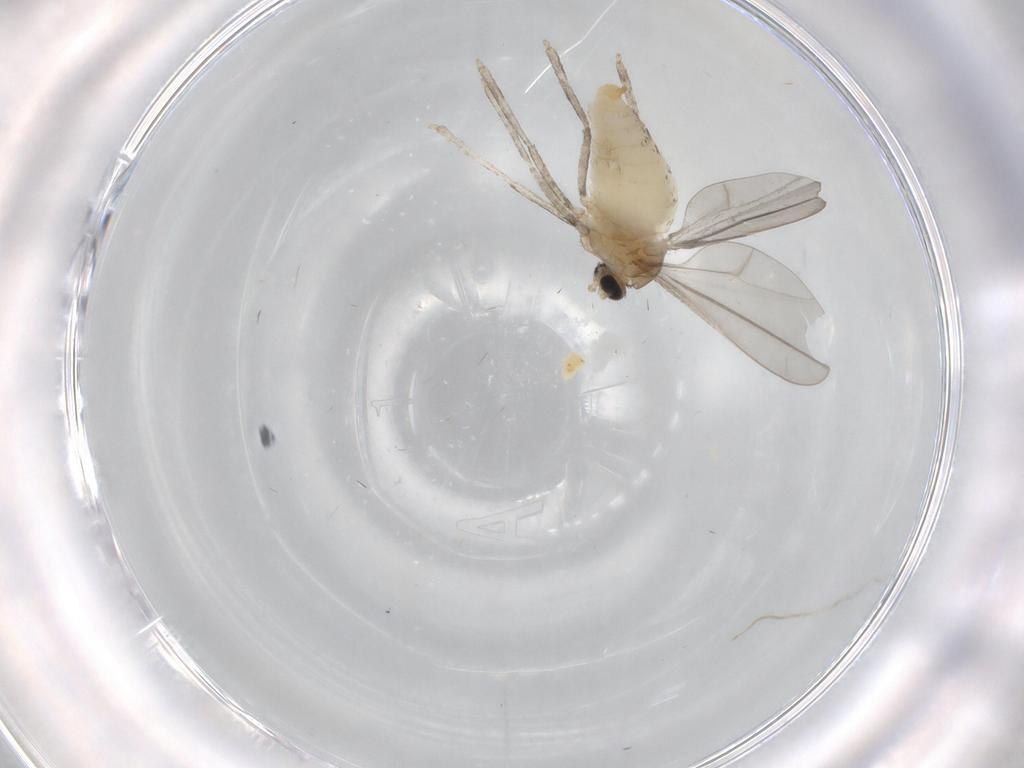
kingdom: Animalia
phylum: Arthropoda
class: Insecta
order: Diptera
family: Cecidomyiidae
